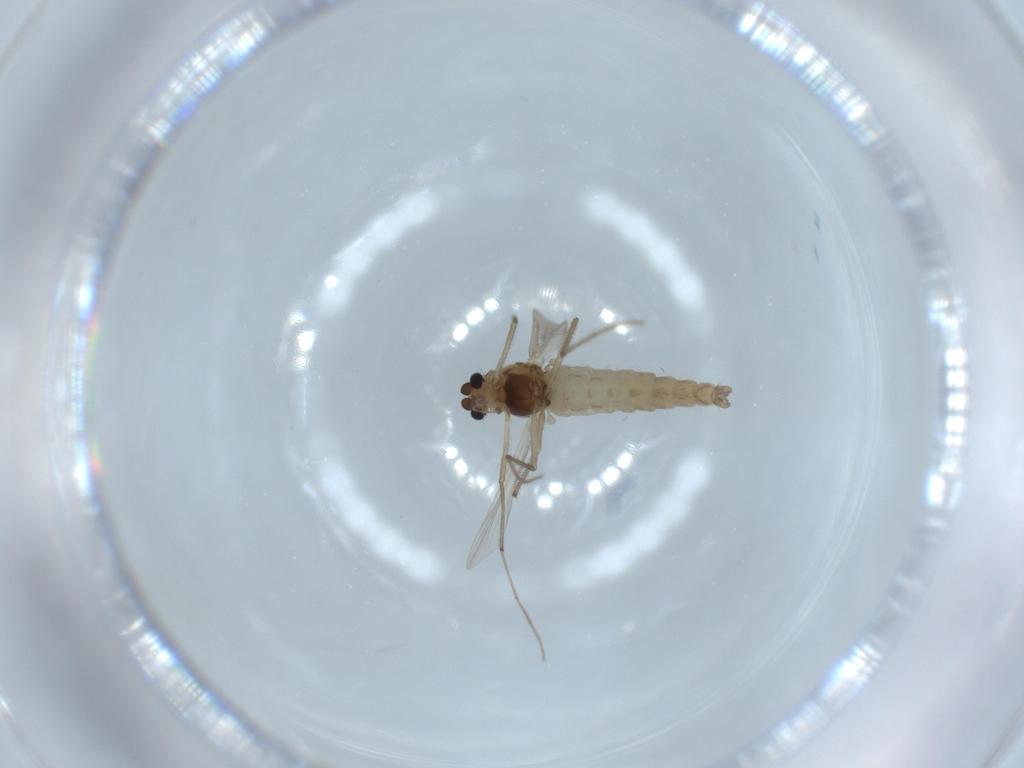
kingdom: Animalia
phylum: Arthropoda
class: Insecta
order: Diptera
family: Chironomidae
